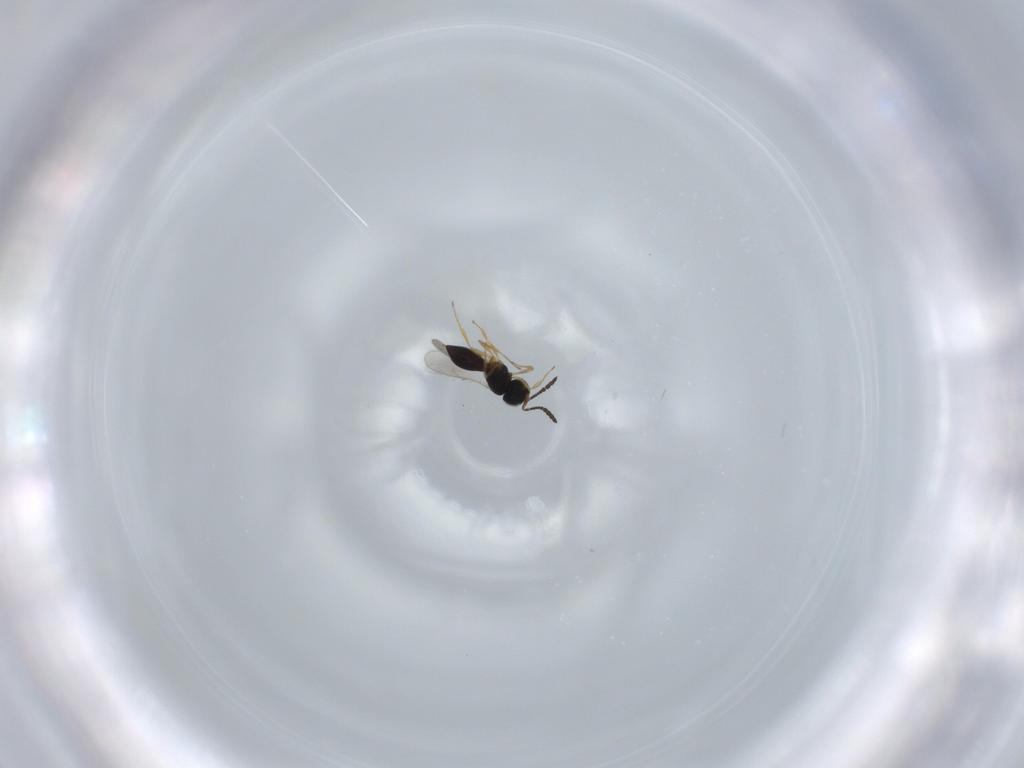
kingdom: Animalia
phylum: Arthropoda
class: Insecta
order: Hymenoptera
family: Scelionidae
